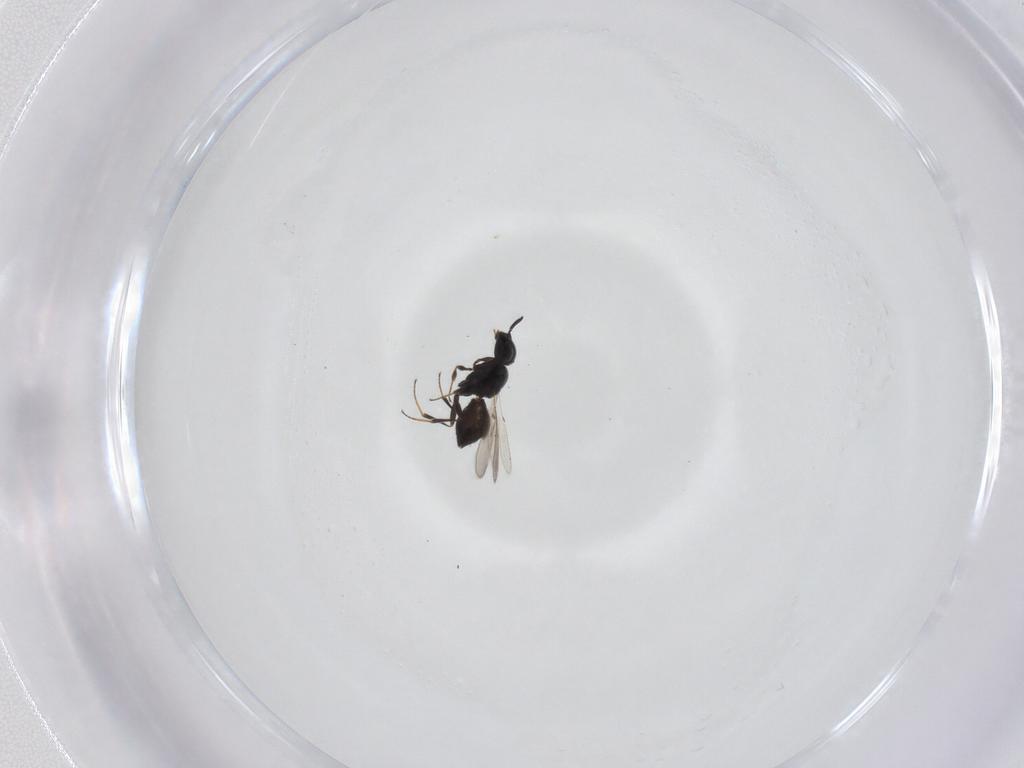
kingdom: Animalia
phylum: Arthropoda
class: Insecta
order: Hymenoptera
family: Scelionidae
